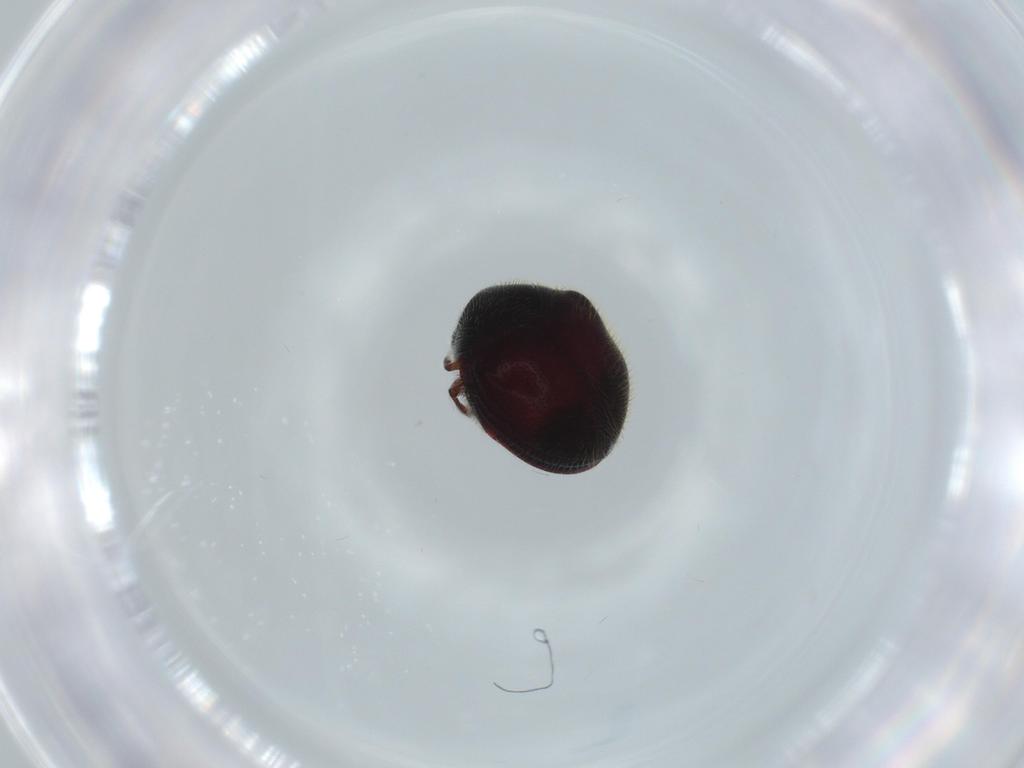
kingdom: Animalia
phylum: Arthropoda
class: Insecta
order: Coleoptera
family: Ptinidae
